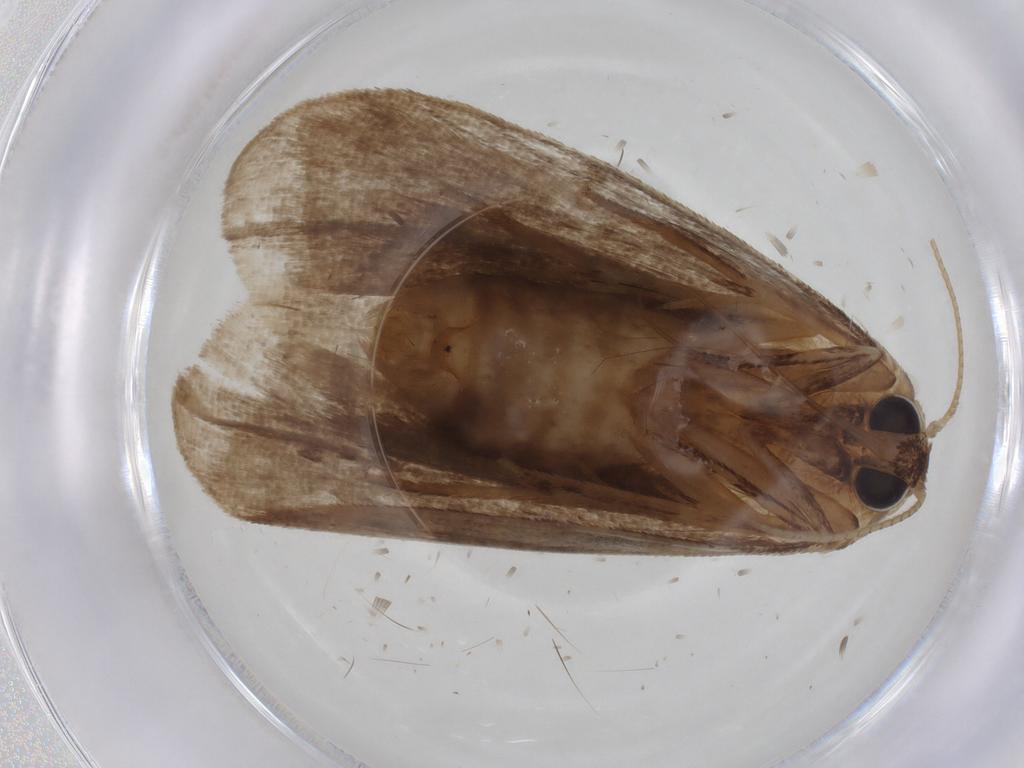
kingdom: Animalia
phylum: Arthropoda
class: Insecta
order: Lepidoptera
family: Erebidae
